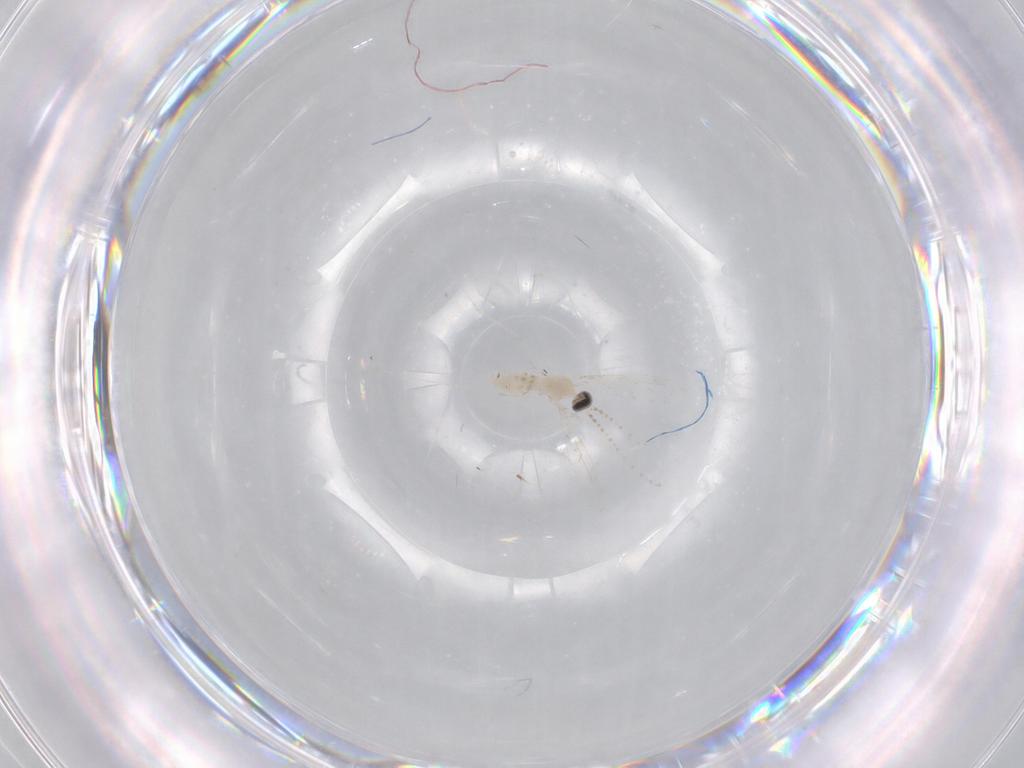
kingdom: Animalia
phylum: Arthropoda
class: Insecta
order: Diptera
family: Cecidomyiidae
